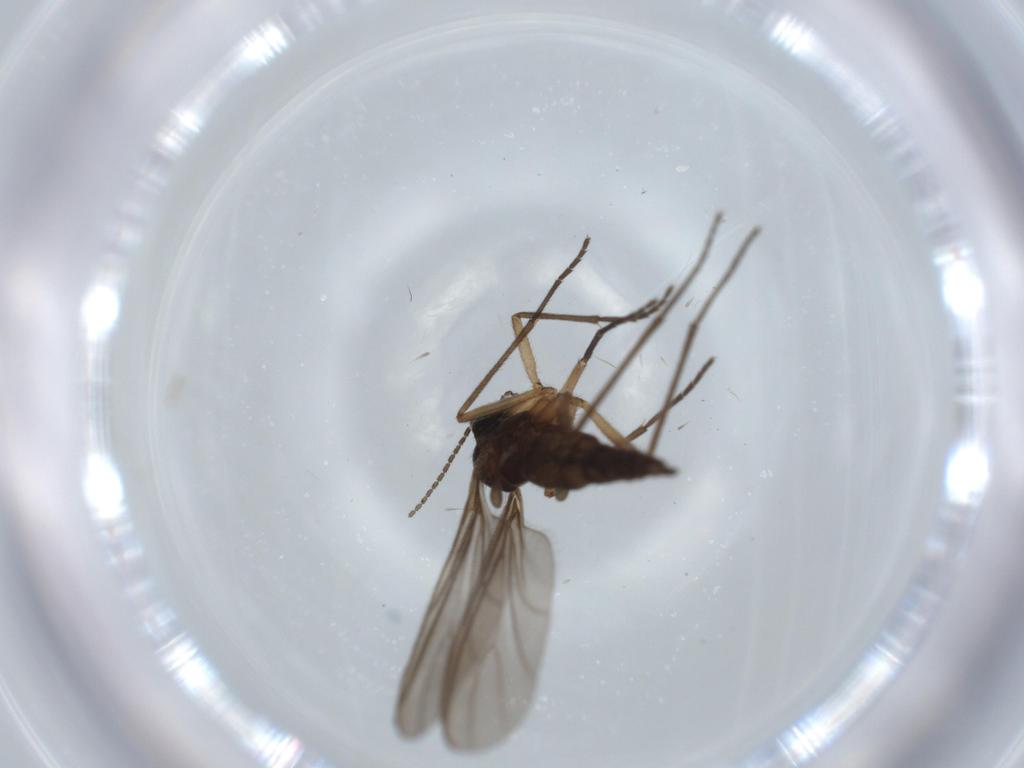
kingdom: Animalia
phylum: Arthropoda
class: Insecta
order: Diptera
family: Sciaridae
